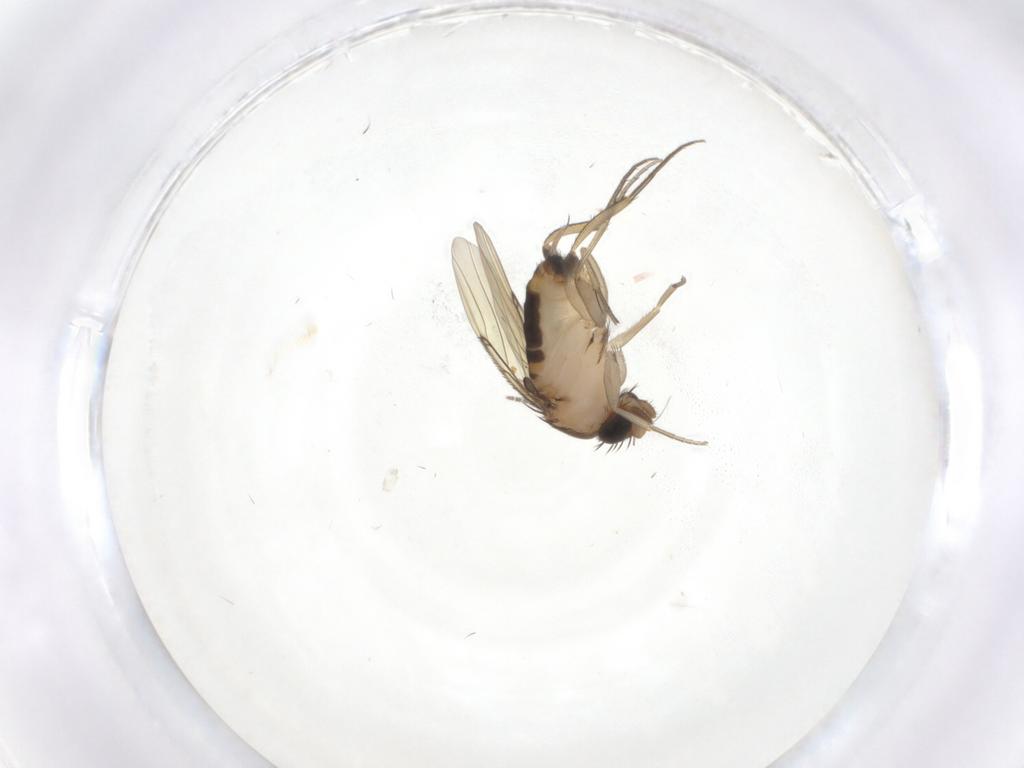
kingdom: Animalia
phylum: Arthropoda
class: Insecta
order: Diptera
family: Phoridae
